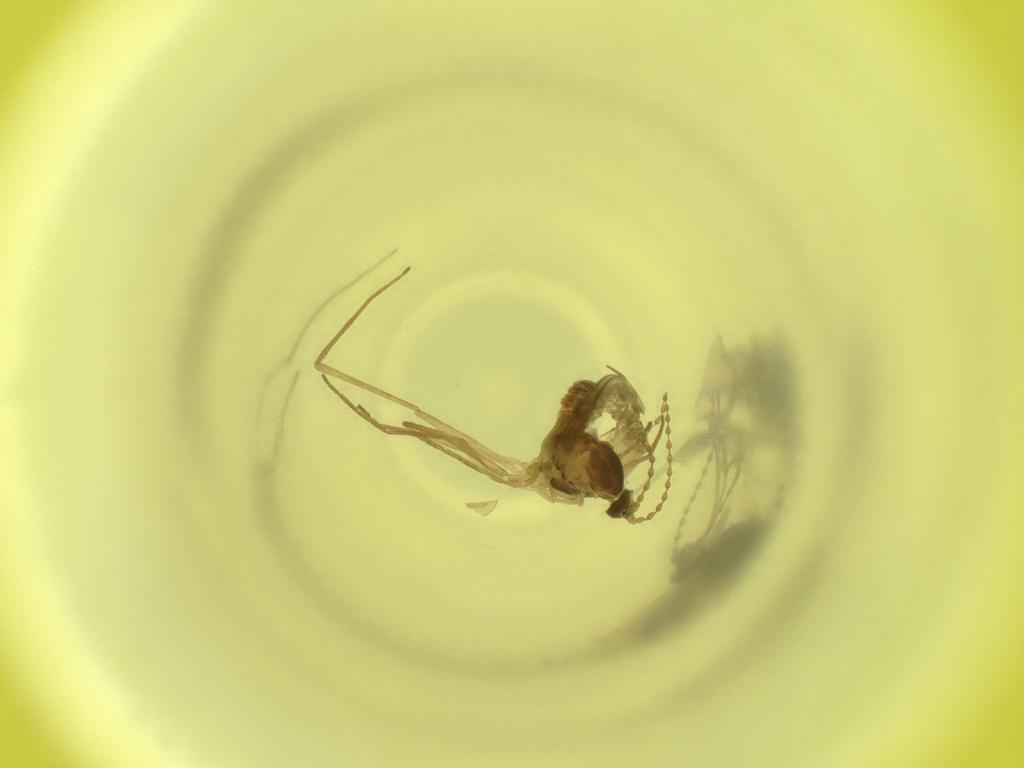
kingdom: Animalia
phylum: Arthropoda
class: Insecta
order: Diptera
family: Cecidomyiidae
